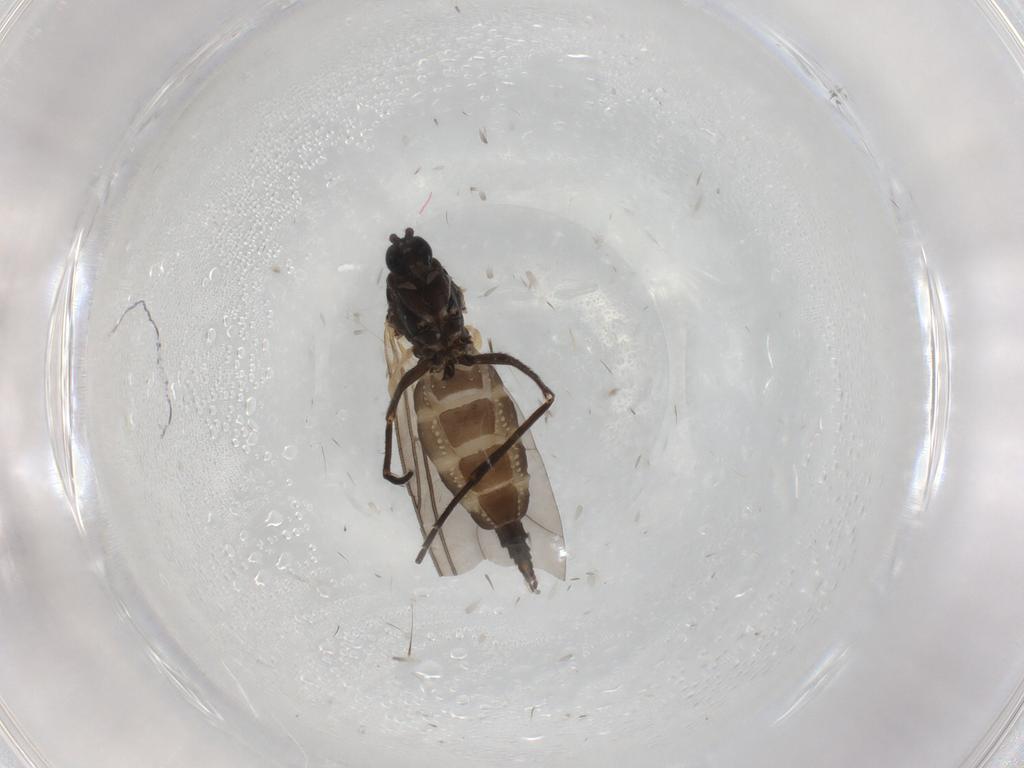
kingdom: Animalia
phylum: Arthropoda
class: Insecta
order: Diptera
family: Sciaridae
